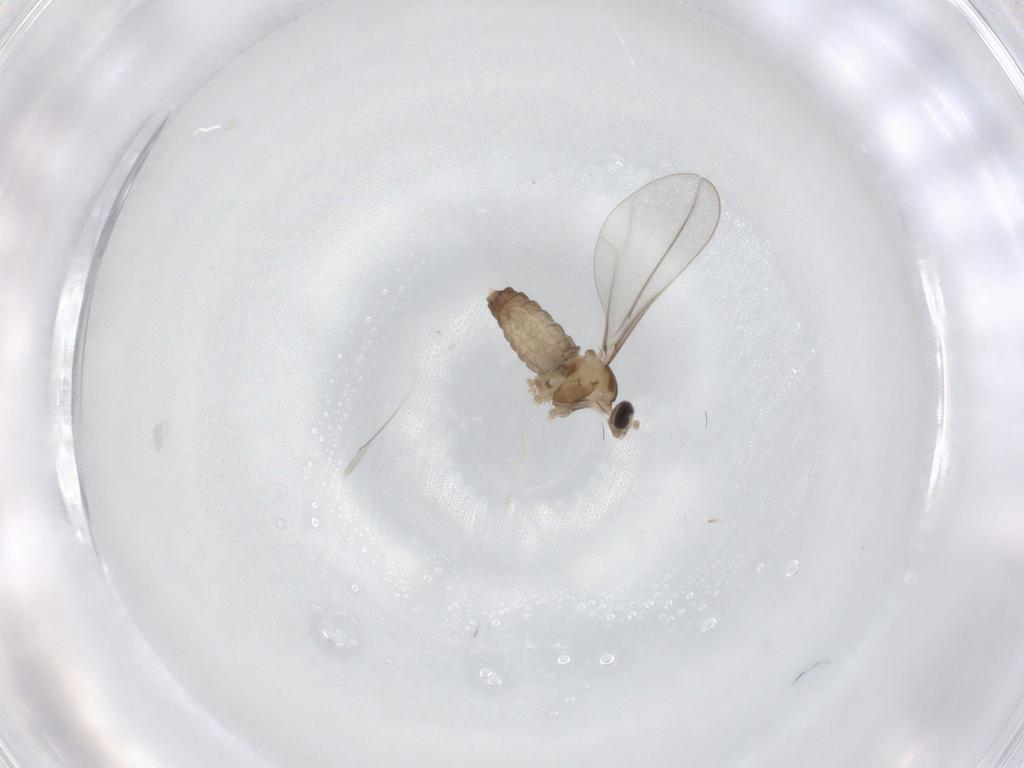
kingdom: Animalia
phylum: Arthropoda
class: Insecta
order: Diptera
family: Cecidomyiidae
